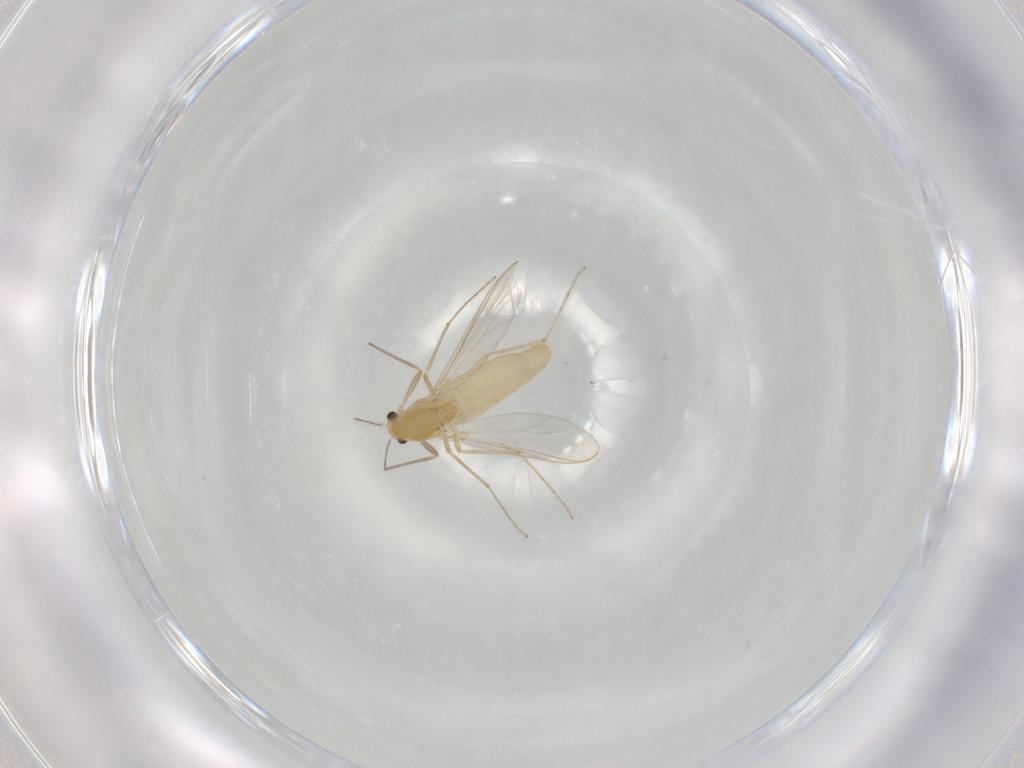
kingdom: Animalia
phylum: Arthropoda
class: Insecta
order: Diptera
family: Chironomidae
